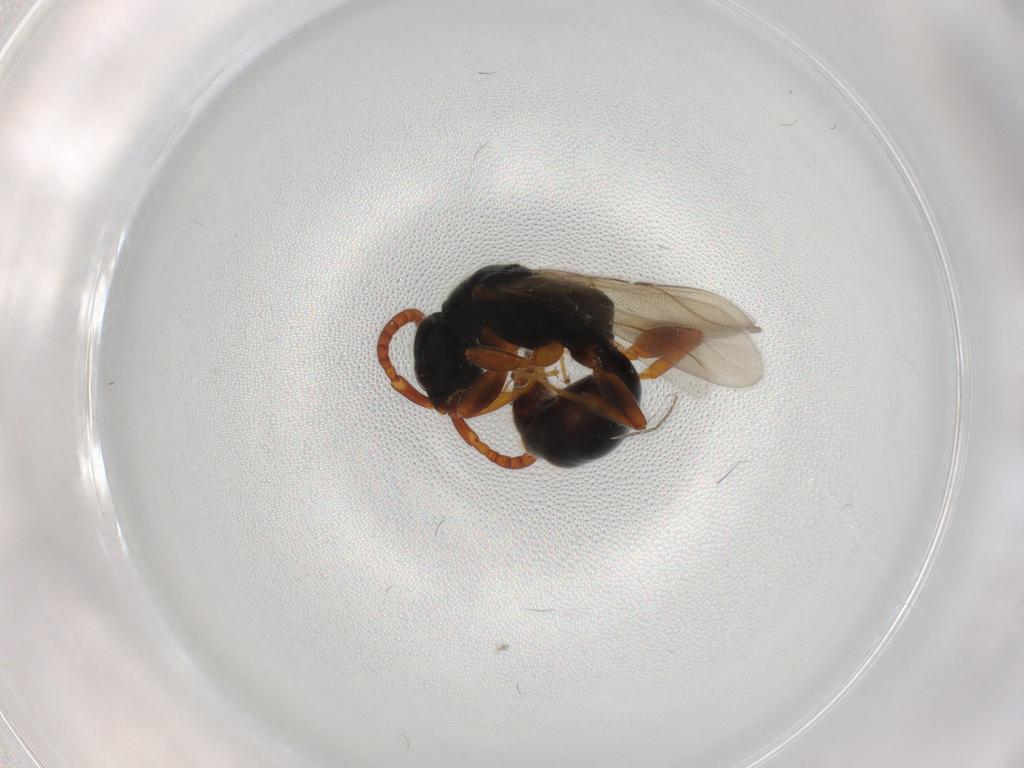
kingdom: Animalia
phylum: Arthropoda
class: Insecta
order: Hymenoptera
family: Bethylidae
